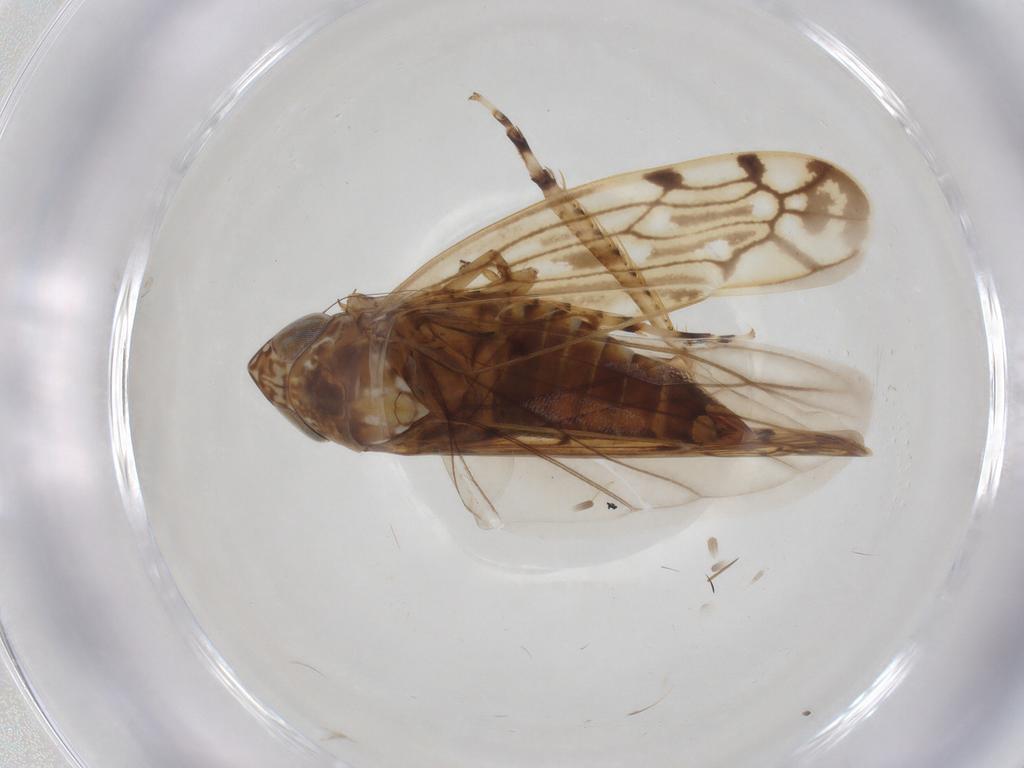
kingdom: Animalia
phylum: Arthropoda
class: Insecta
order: Hemiptera
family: Cicadellidae
